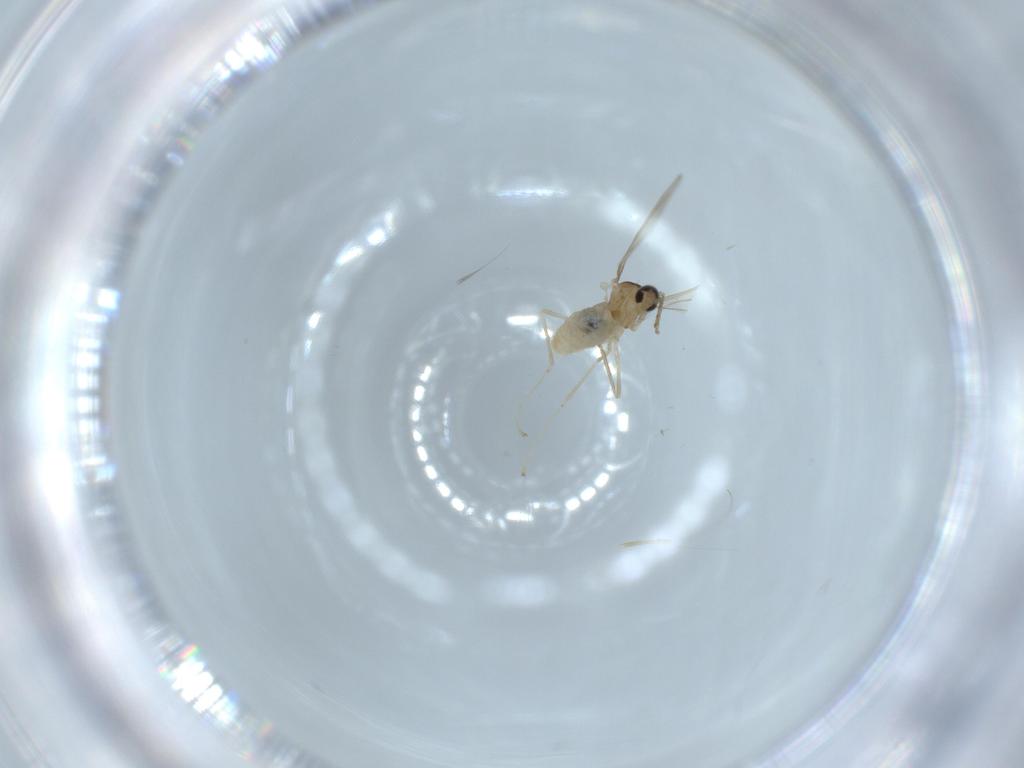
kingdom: Animalia
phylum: Arthropoda
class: Insecta
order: Diptera
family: Cecidomyiidae
